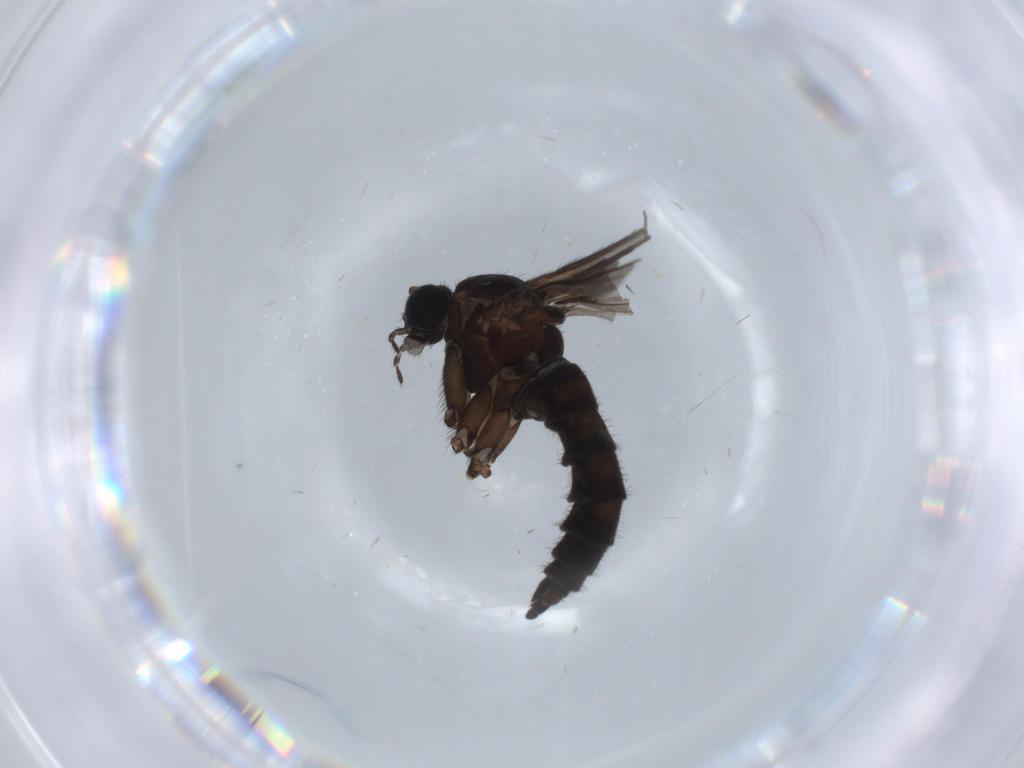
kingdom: Animalia
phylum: Arthropoda
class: Insecta
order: Diptera
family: Sciaridae
